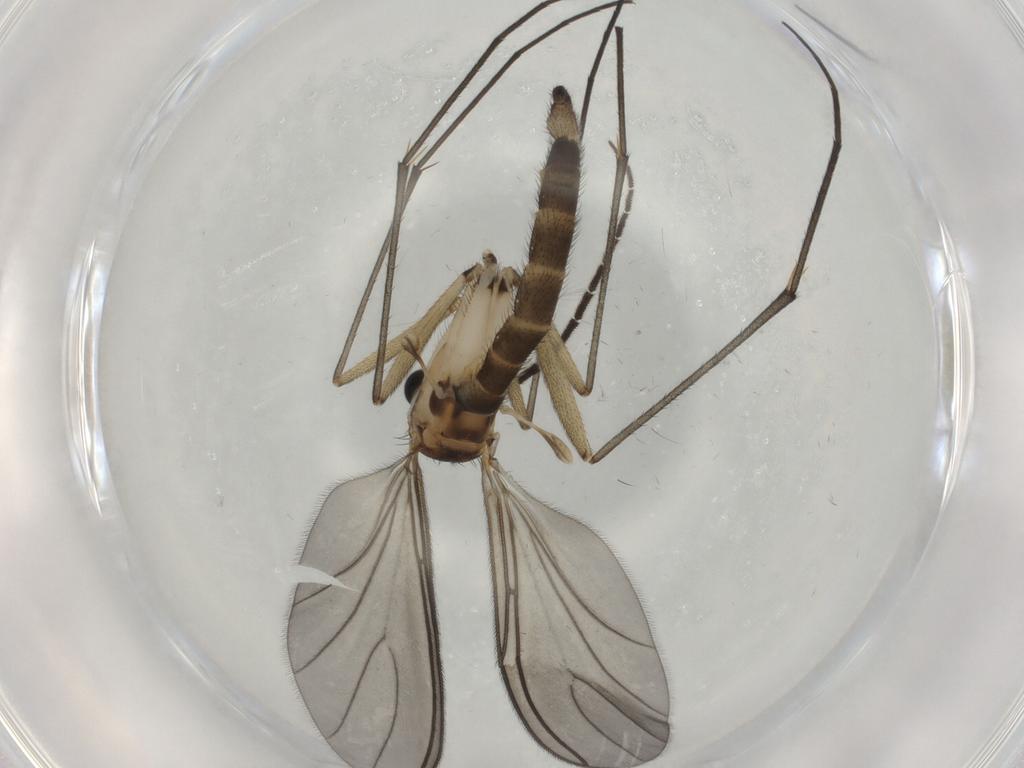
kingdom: Animalia
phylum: Arthropoda
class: Insecta
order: Diptera
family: Sciaridae
